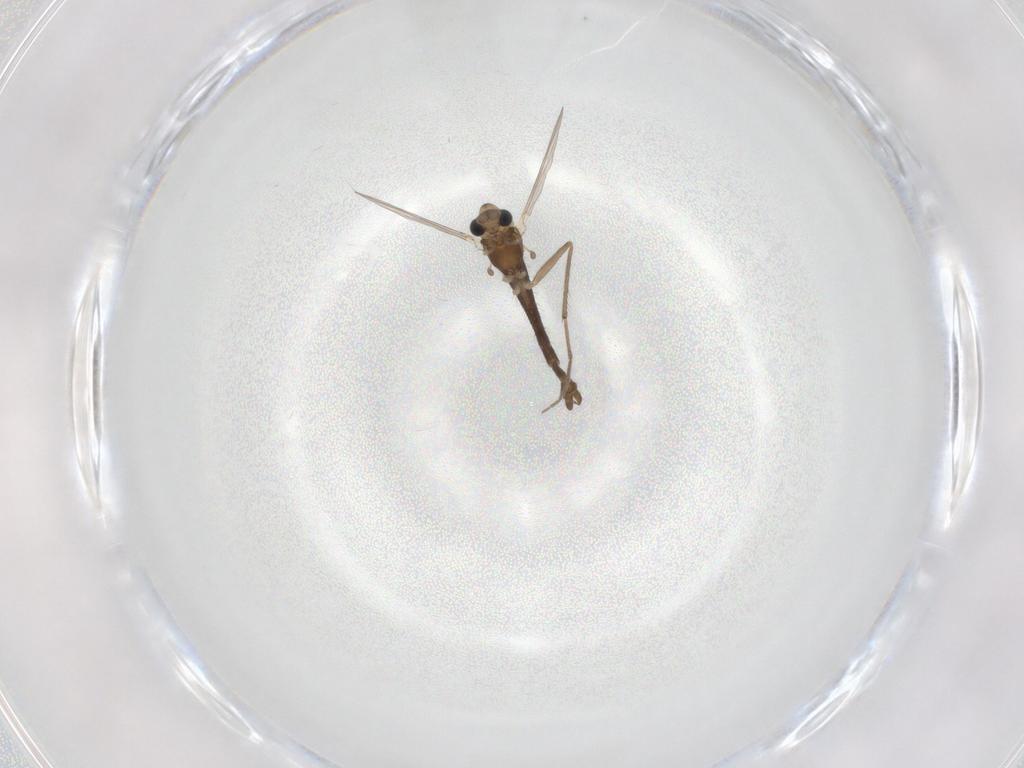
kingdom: Animalia
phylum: Arthropoda
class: Insecta
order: Diptera
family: Chironomidae
